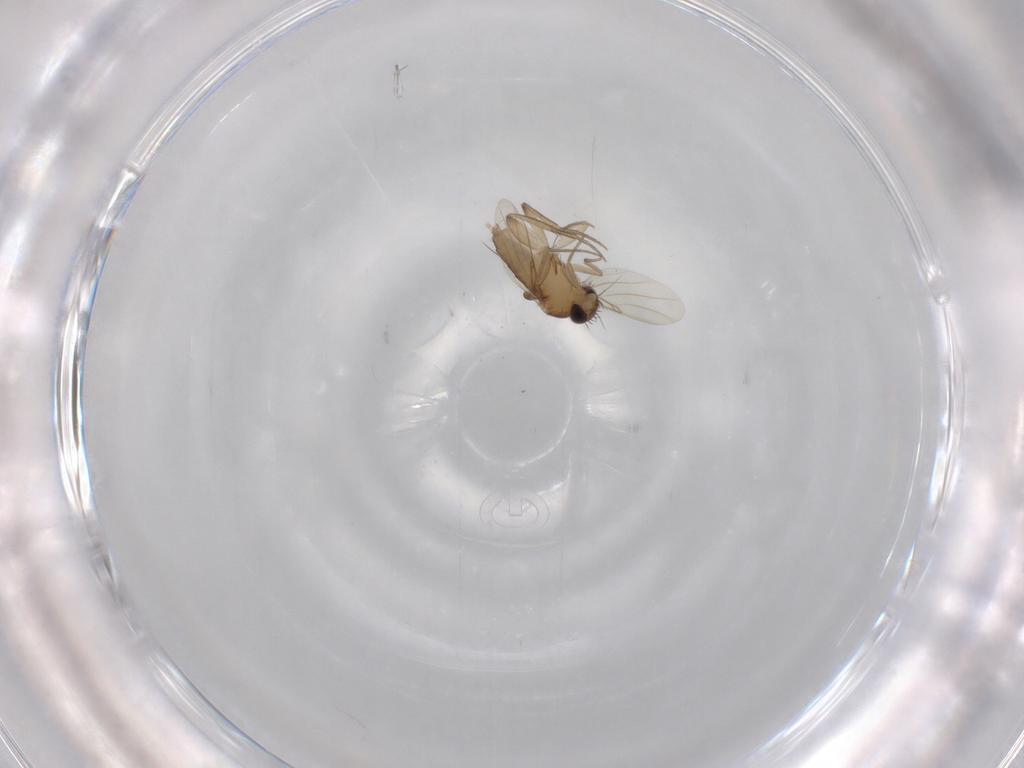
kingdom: Animalia
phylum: Arthropoda
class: Insecta
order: Diptera
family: Phoridae
